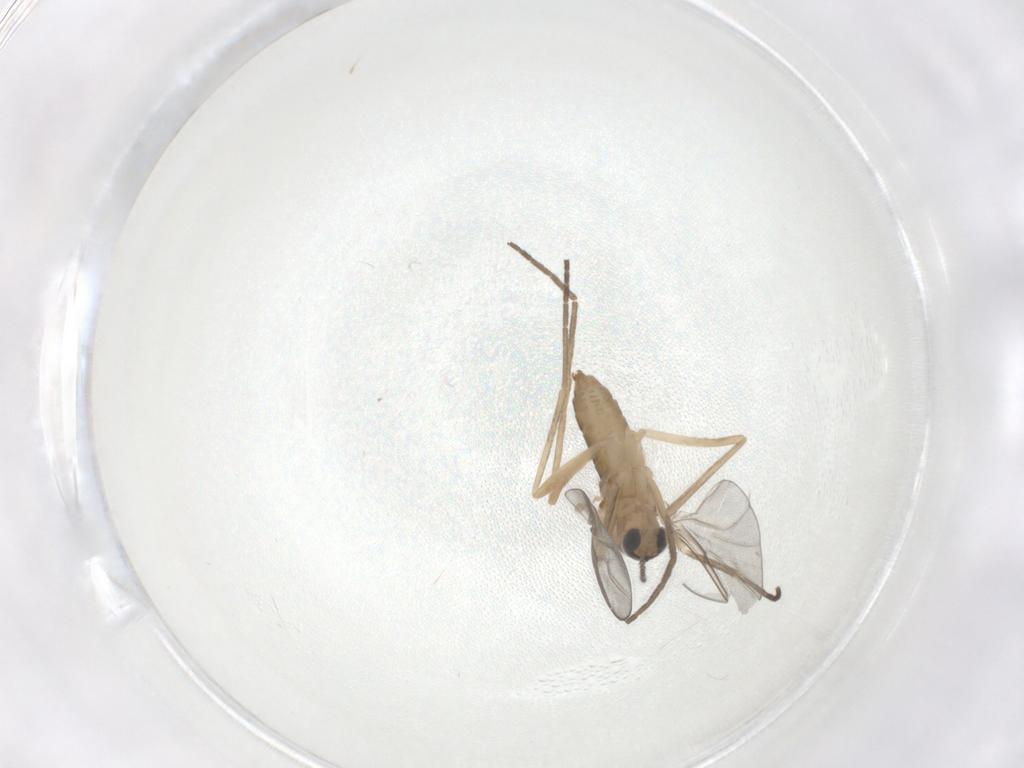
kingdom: Animalia
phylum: Arthropoda
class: Insecta
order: Diptera
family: Cecidomyiidae
